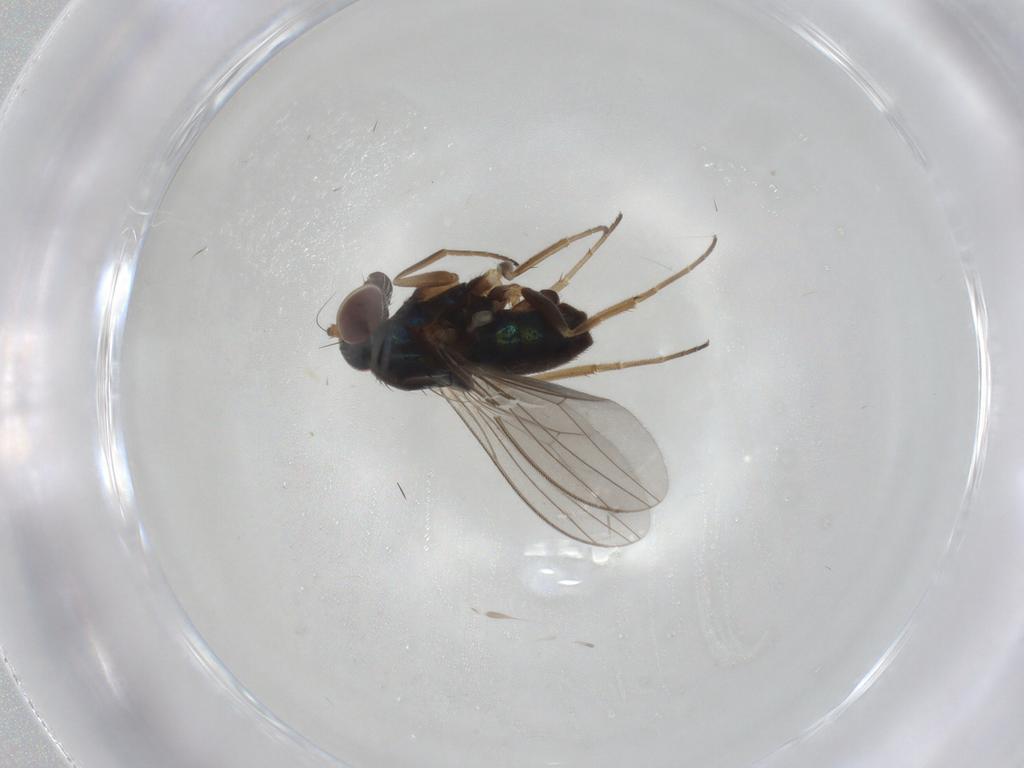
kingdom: Animalia
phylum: Arthropoda
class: Insecta
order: Diptera
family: Dolichopodidae
